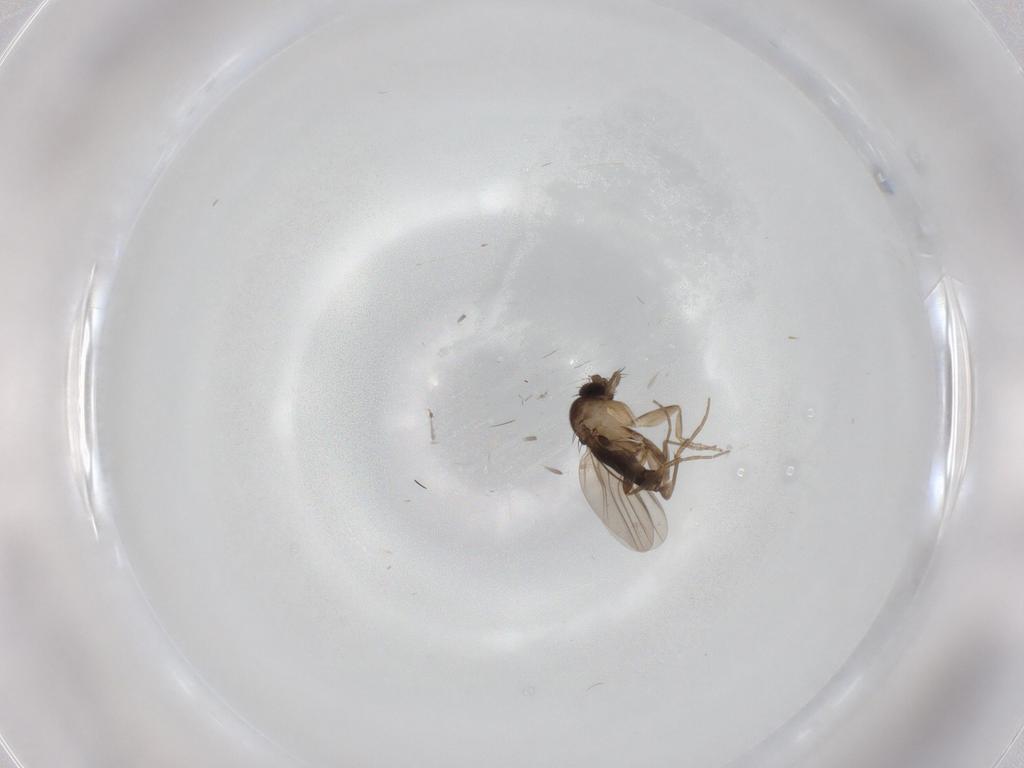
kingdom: Animalia
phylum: Arthropoda
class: Insecta
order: Diptera
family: Phoridae
